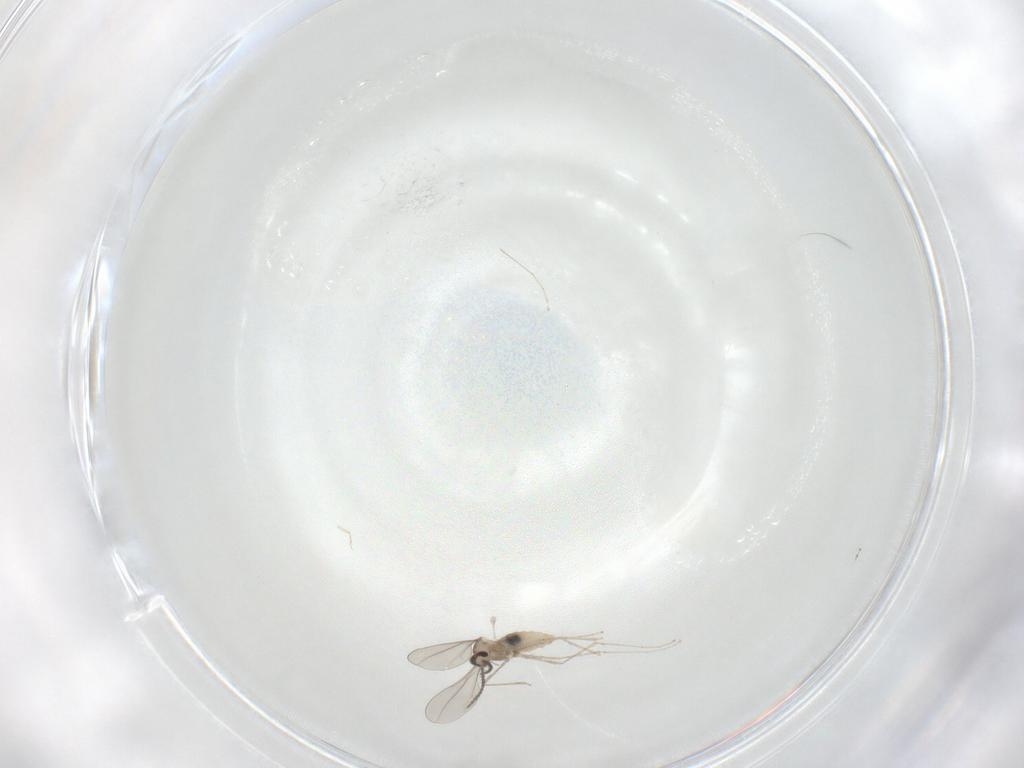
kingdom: Animalia
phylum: Arthropoda
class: Insecta
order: Diptera
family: Cecidomyiidae
